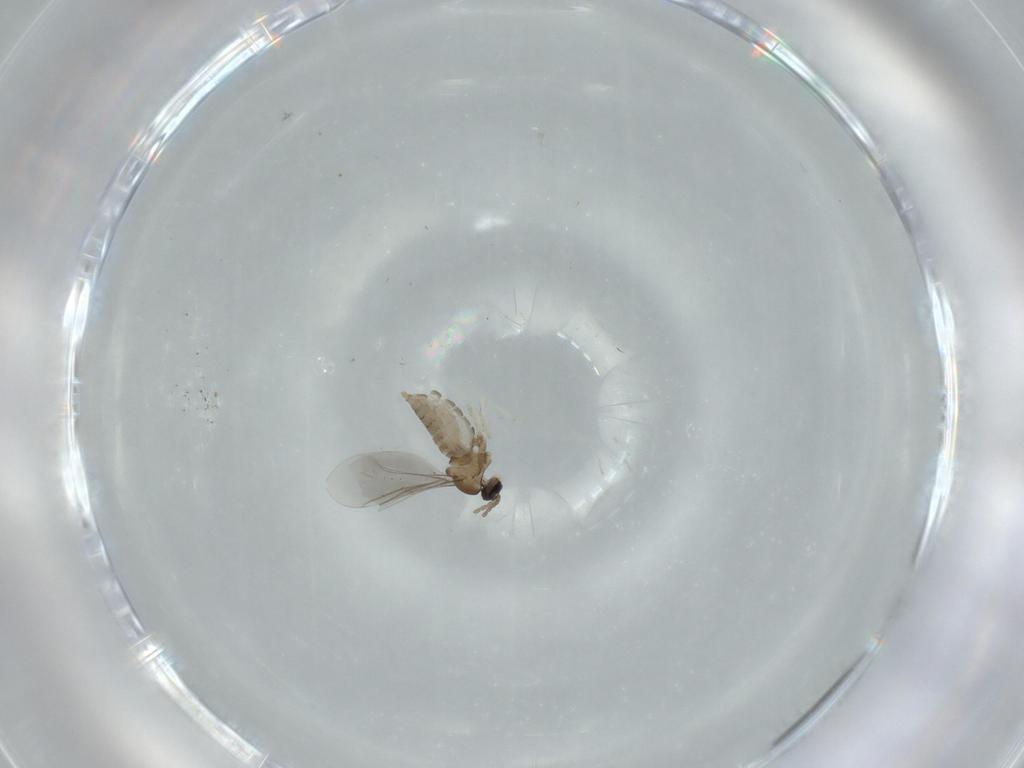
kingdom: Animalia
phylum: Arthropoda
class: Insecta
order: Diptera
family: Cecidomyiidae
